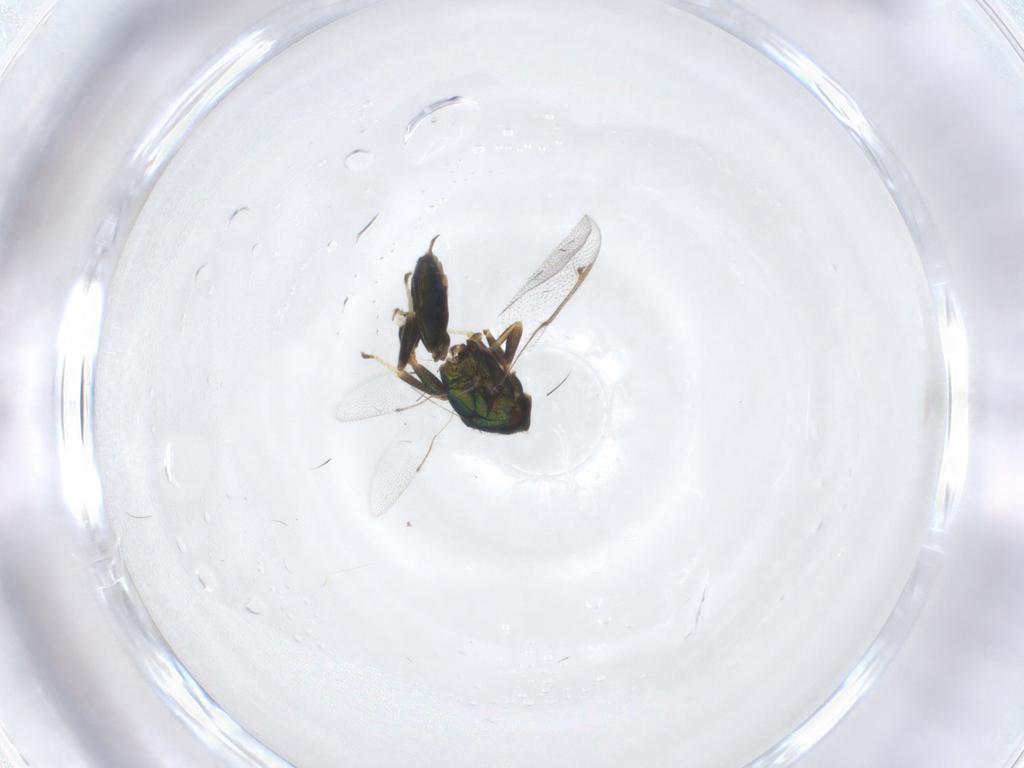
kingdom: Animalia
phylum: Arthropoda
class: Insecta
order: Hymenoptera
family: Torymidae
